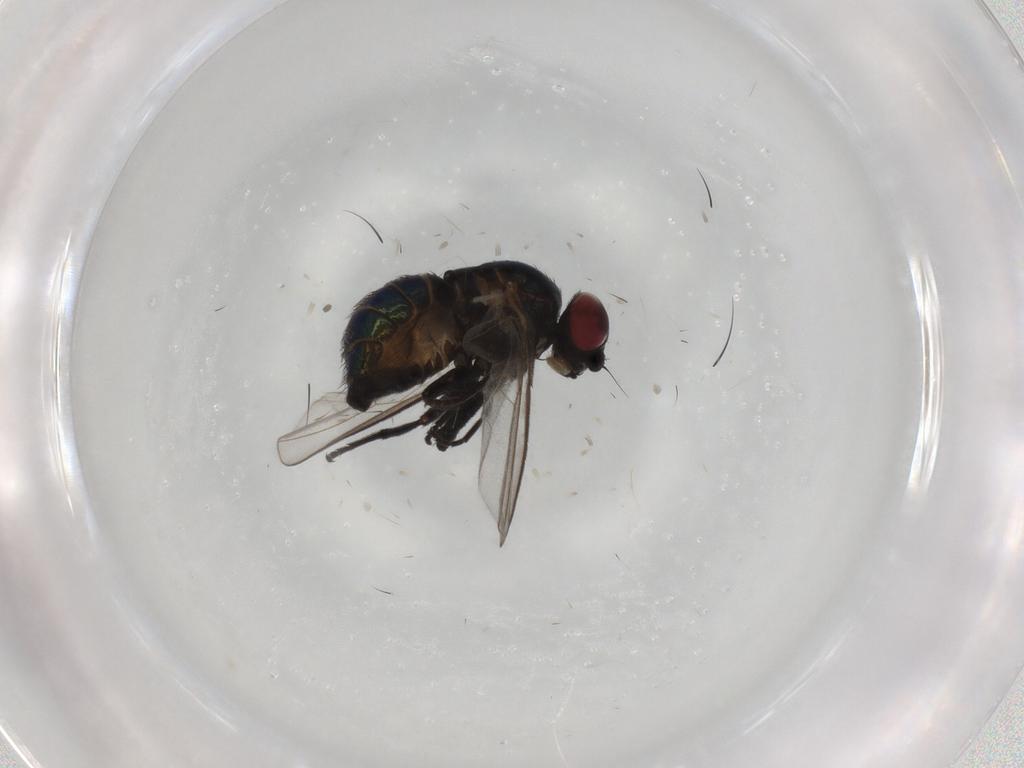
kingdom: Animalia
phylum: Arthropoda
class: Insecta
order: Diptera
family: Agromyzidae
